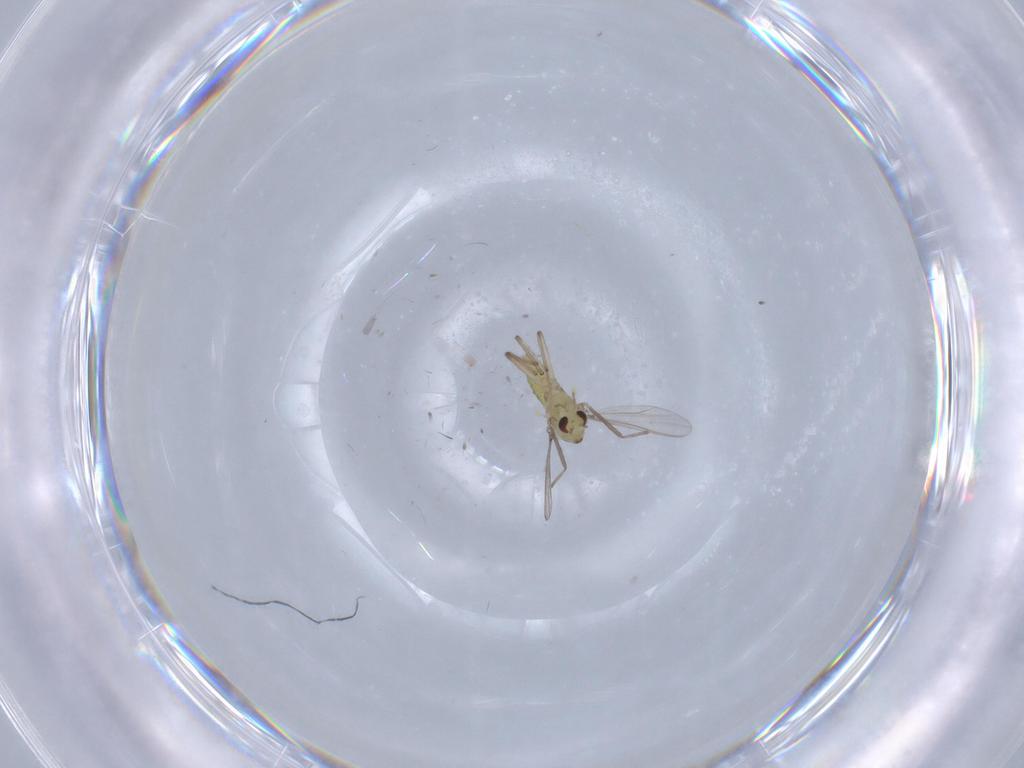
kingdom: Animalia
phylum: Arthropoda
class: Insecta
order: Diptera
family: Chironomidae
